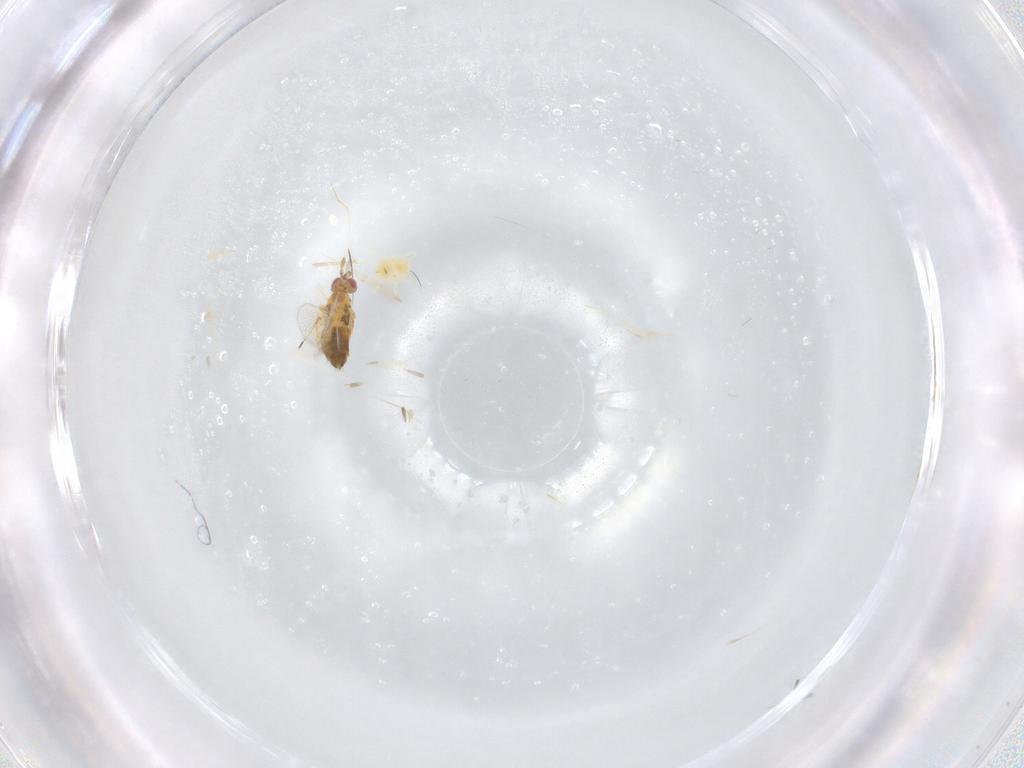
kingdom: Animalia
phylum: Arthropoda
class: Insecta
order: Hymenoptera
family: Trichogrammatidae
